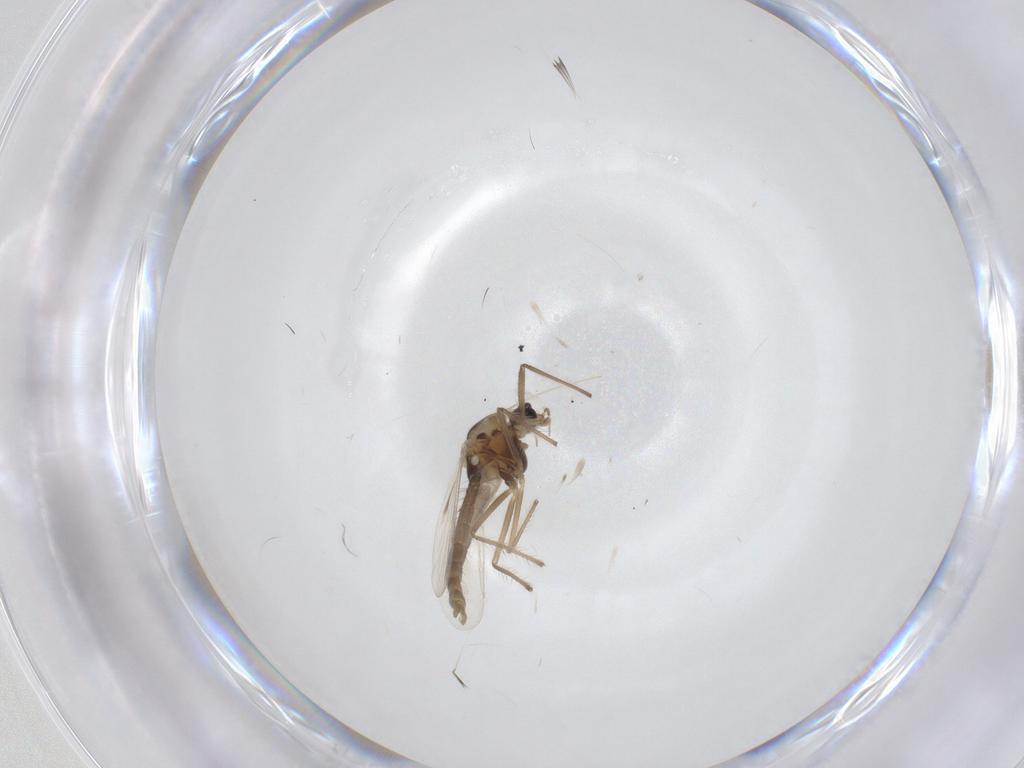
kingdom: Animalia
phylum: Arthropoda
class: Insecta
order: Diptera
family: Chironomidae
